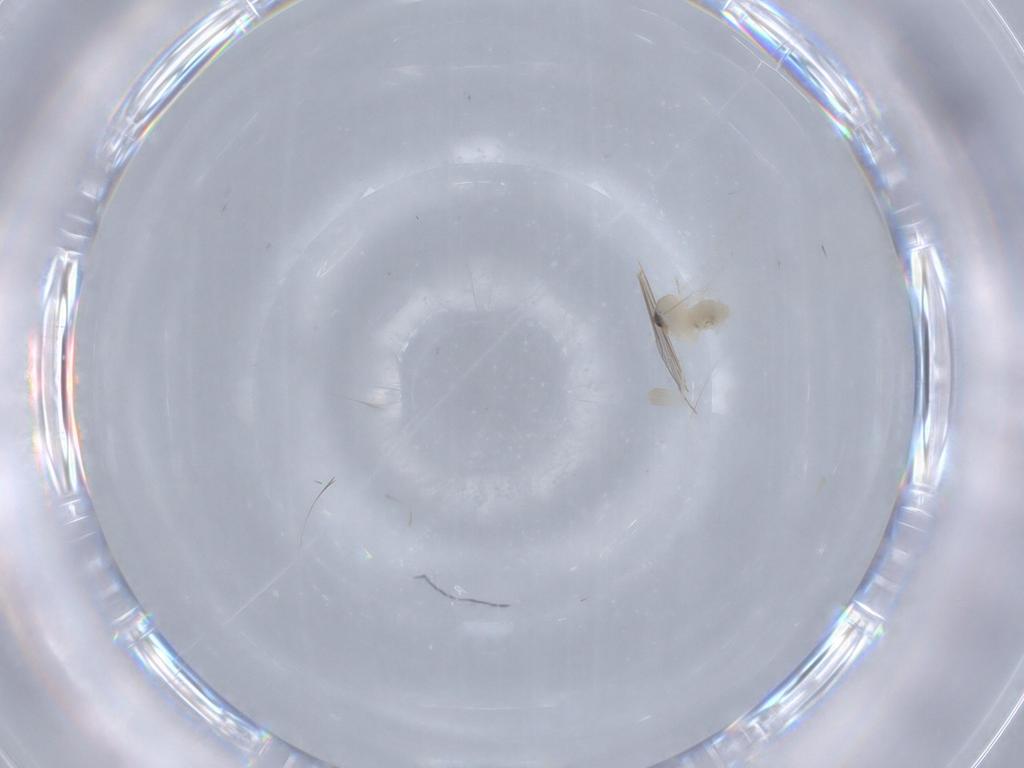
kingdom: Animalia
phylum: Arthropoda
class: Insecta
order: Diptera
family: Chironomidae
